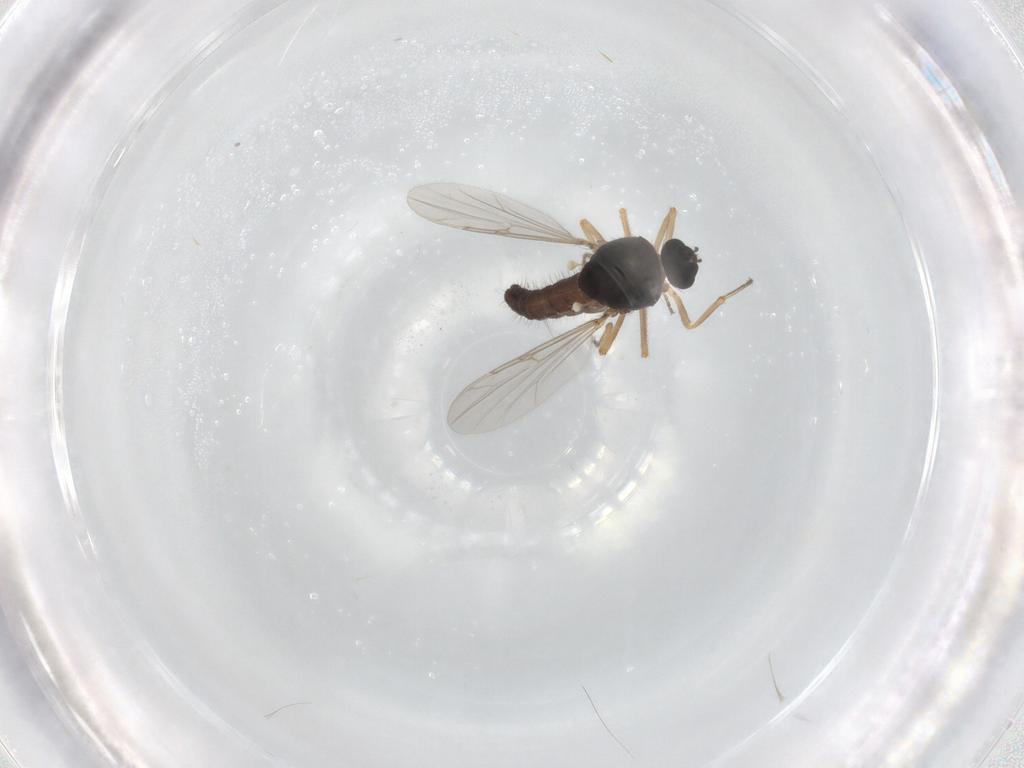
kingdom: Animalia
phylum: Arthropoda
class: Insecta
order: Diptera
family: Ceratopogonidae
